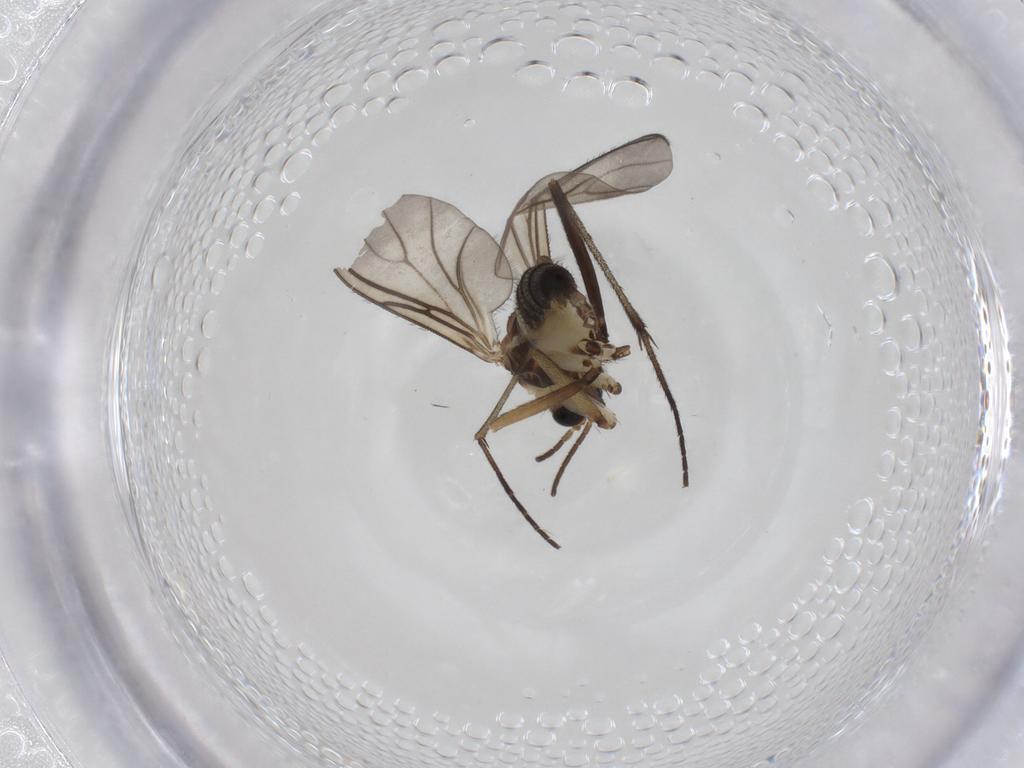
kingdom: Animalia
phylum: Arthropoda
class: Insecta
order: Diptera
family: Sciaridae
